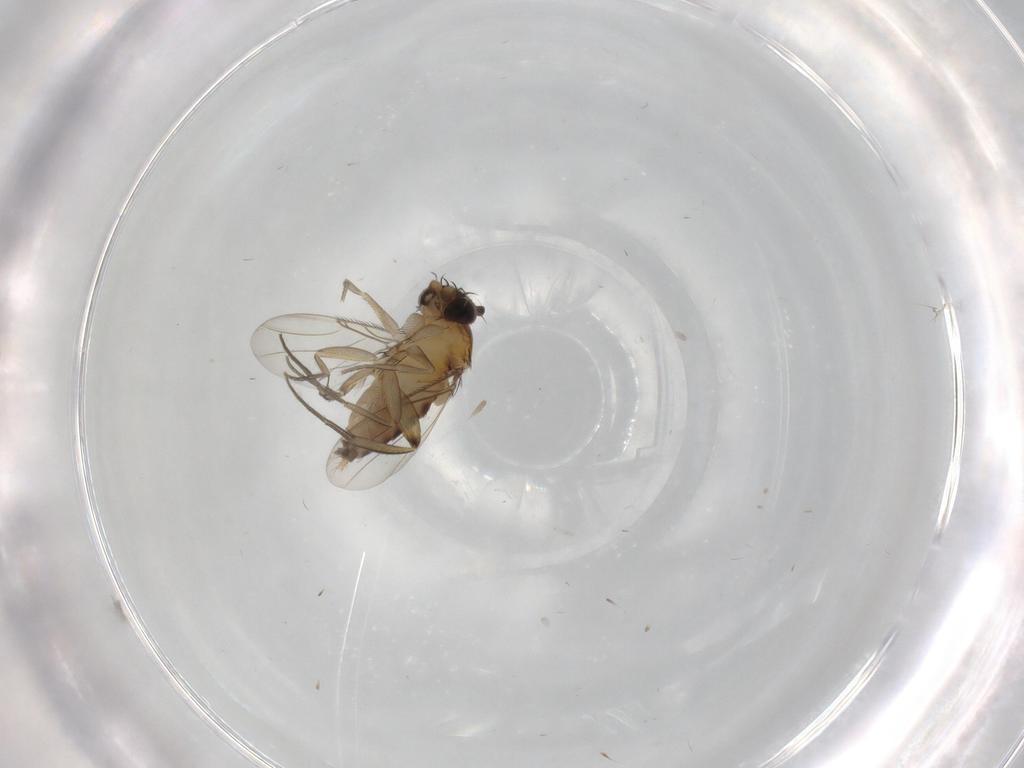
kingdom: Animalia
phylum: Arthropoda
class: Insecta
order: Diptera
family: Phoridae
